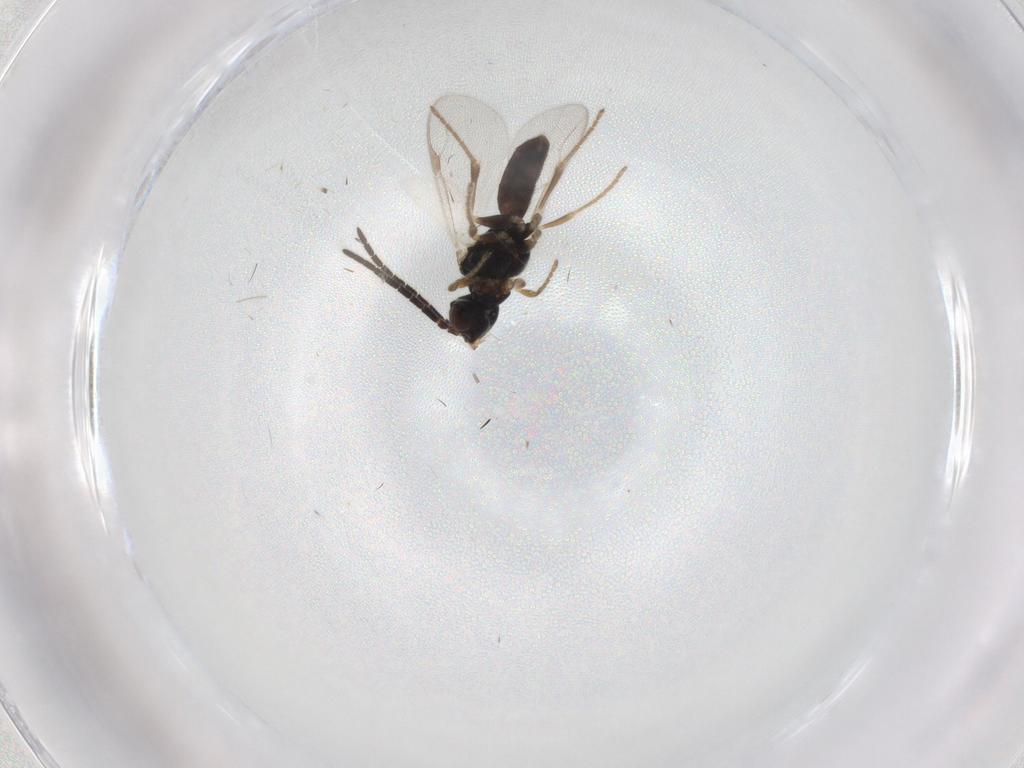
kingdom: Animalia
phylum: Arthropoda
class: Insecta
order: Hymenoptera
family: Dryinidae
